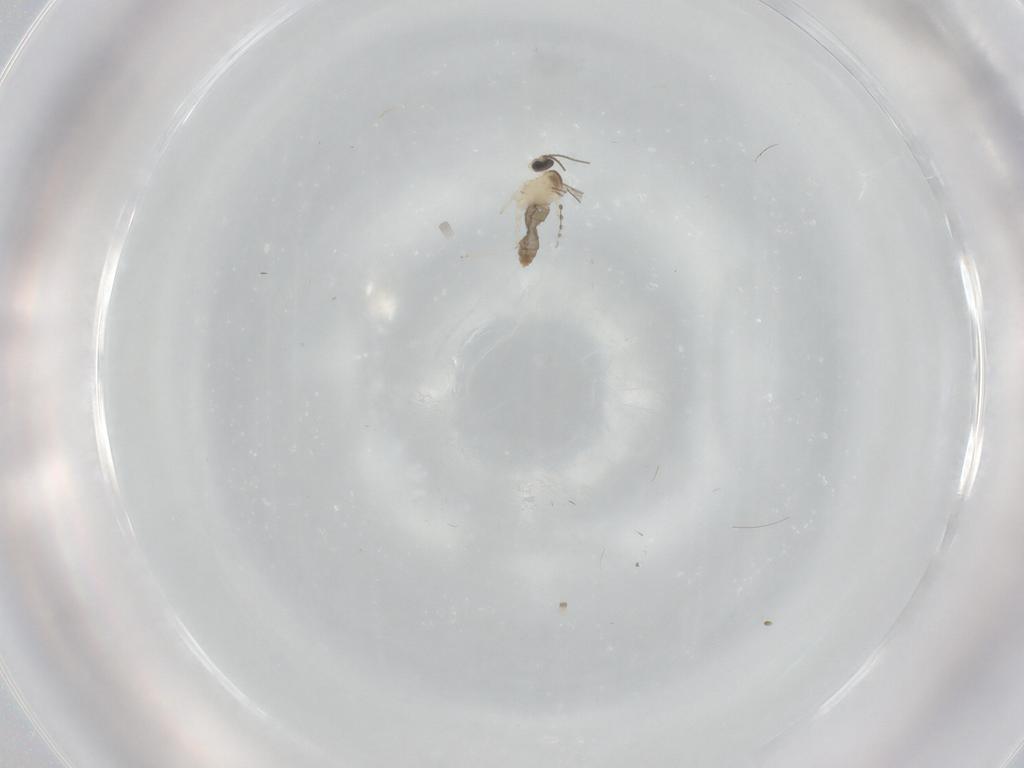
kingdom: Animalia
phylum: Arthropoda
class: Insecta
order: Diptera
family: Cecidomyiidae
